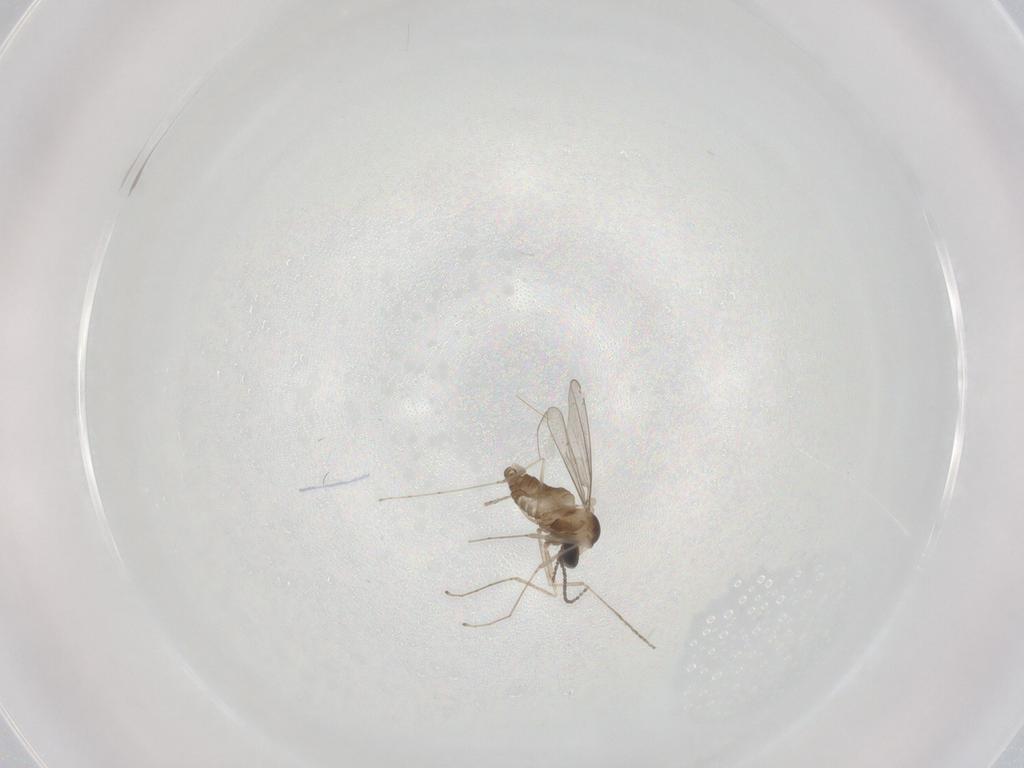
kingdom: Animalia
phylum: Arthropoda
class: Insecta
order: Diptera
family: Cecidomyiidae
